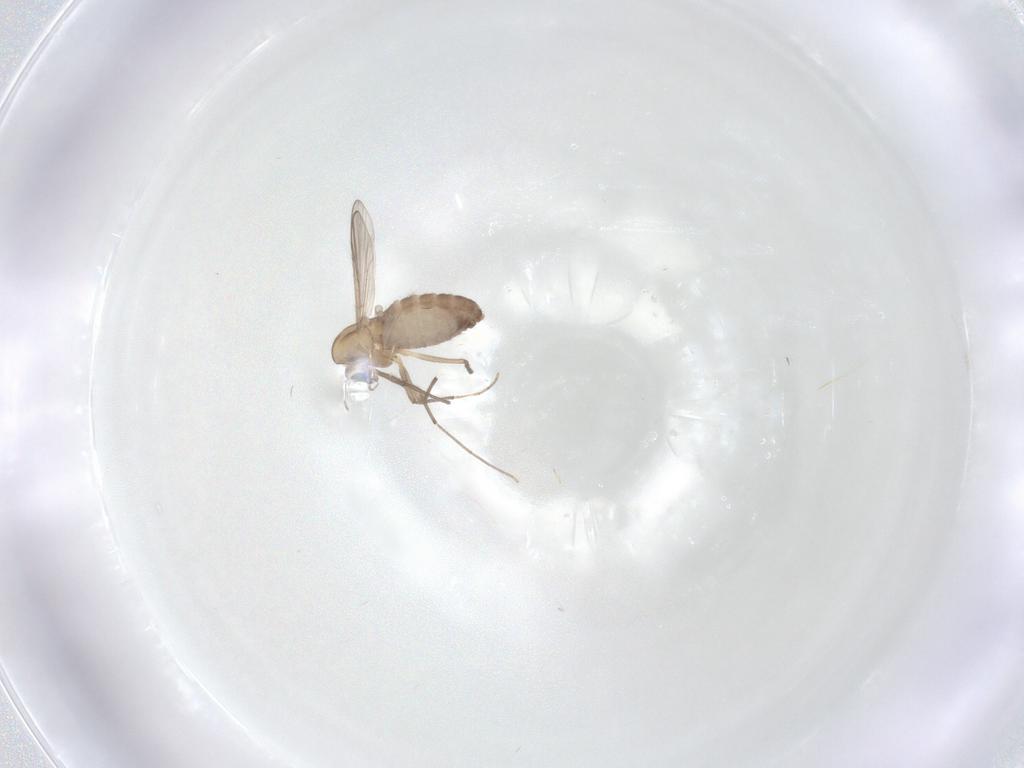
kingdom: Animalia
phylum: Arthropoda
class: Insecta
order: Diptera
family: Chironomidae
